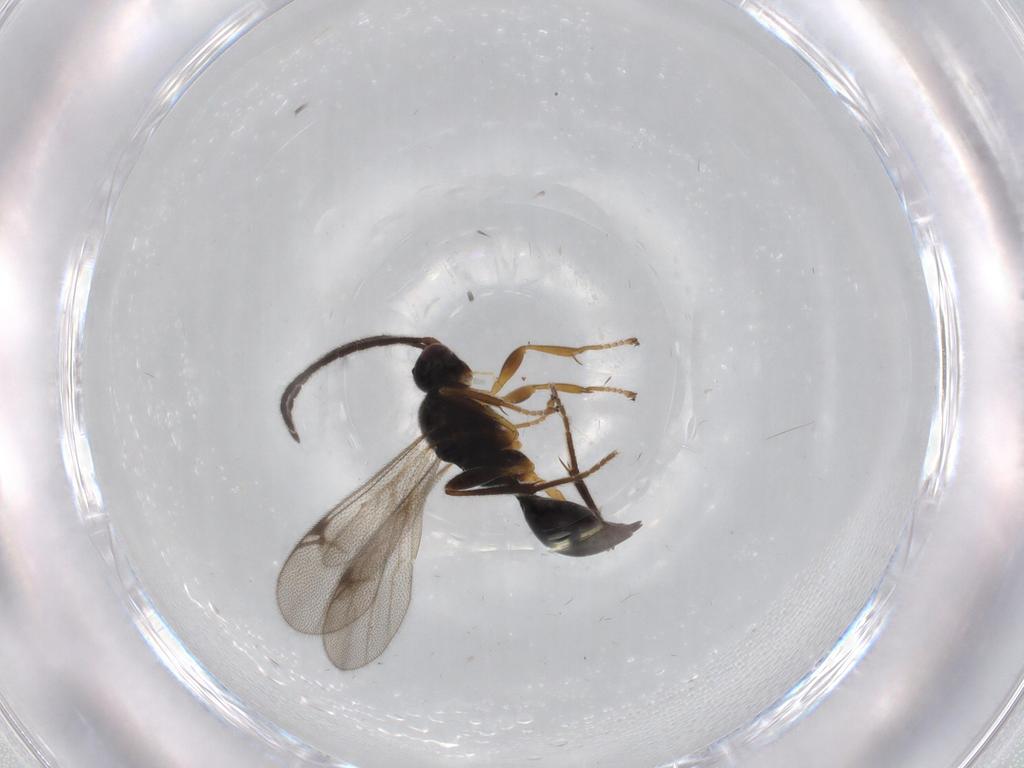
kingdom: Animalia
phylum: Arthropoda
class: Insecta
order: Hymenoptera
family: Proctotrupidae
